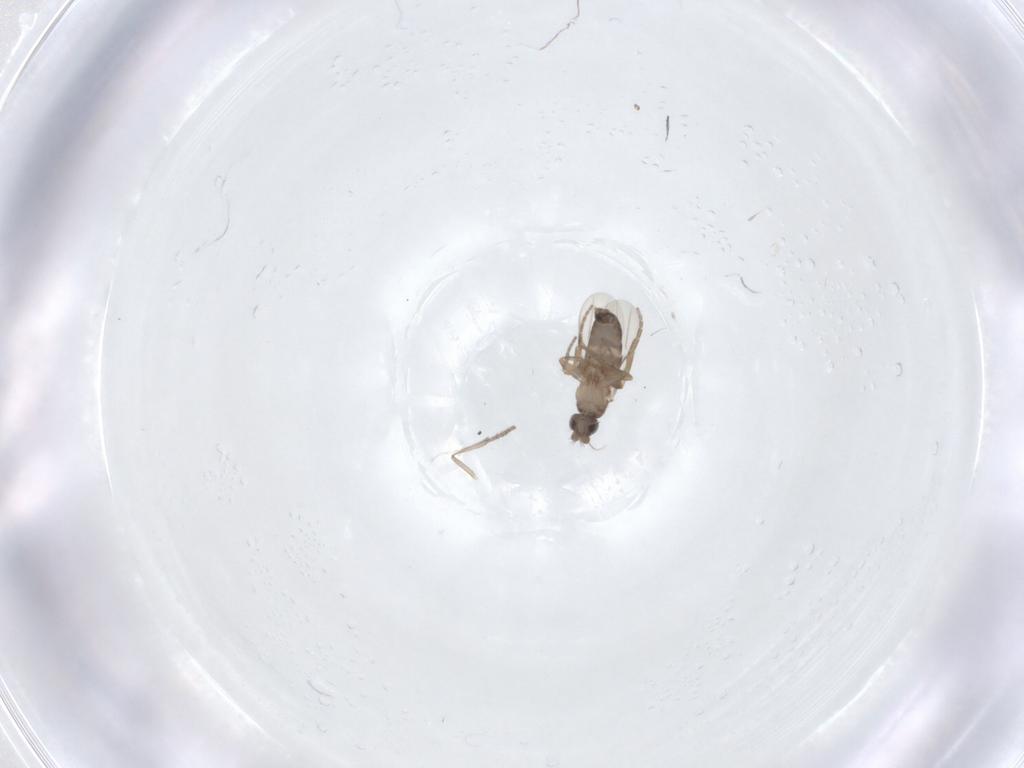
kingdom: Animalia
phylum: Arthropoda
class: Insecta
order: Diptera
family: Phoridae
